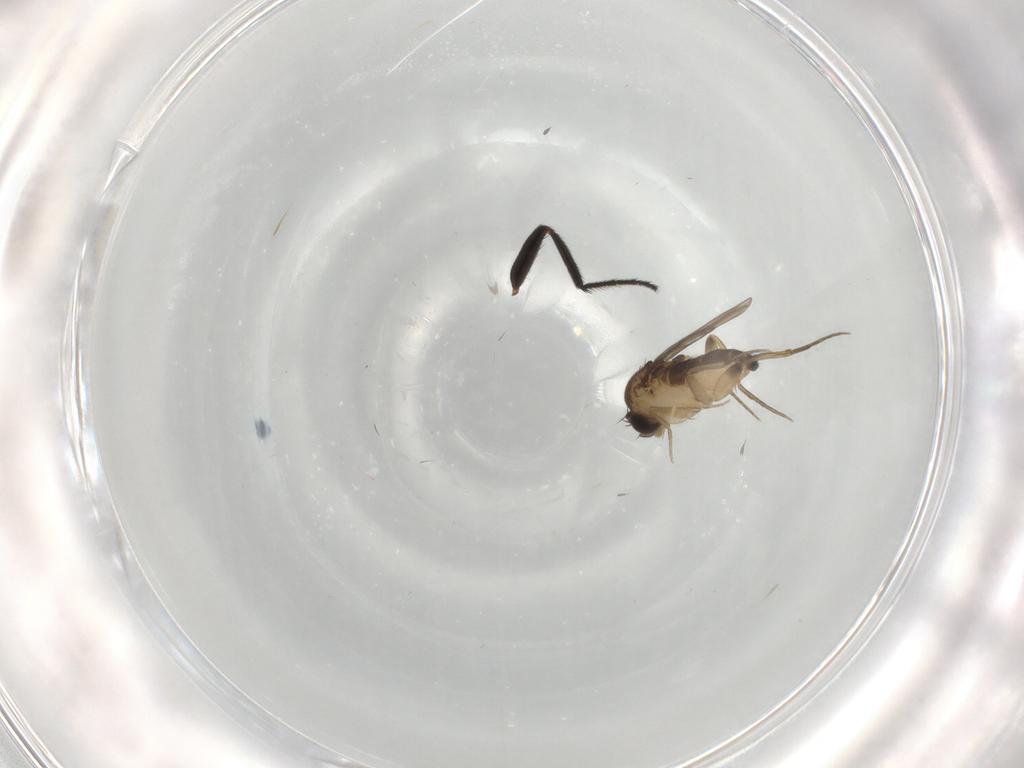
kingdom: Animalia
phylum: Arthropoda
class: Insecta
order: Diptera
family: Milichiidae
